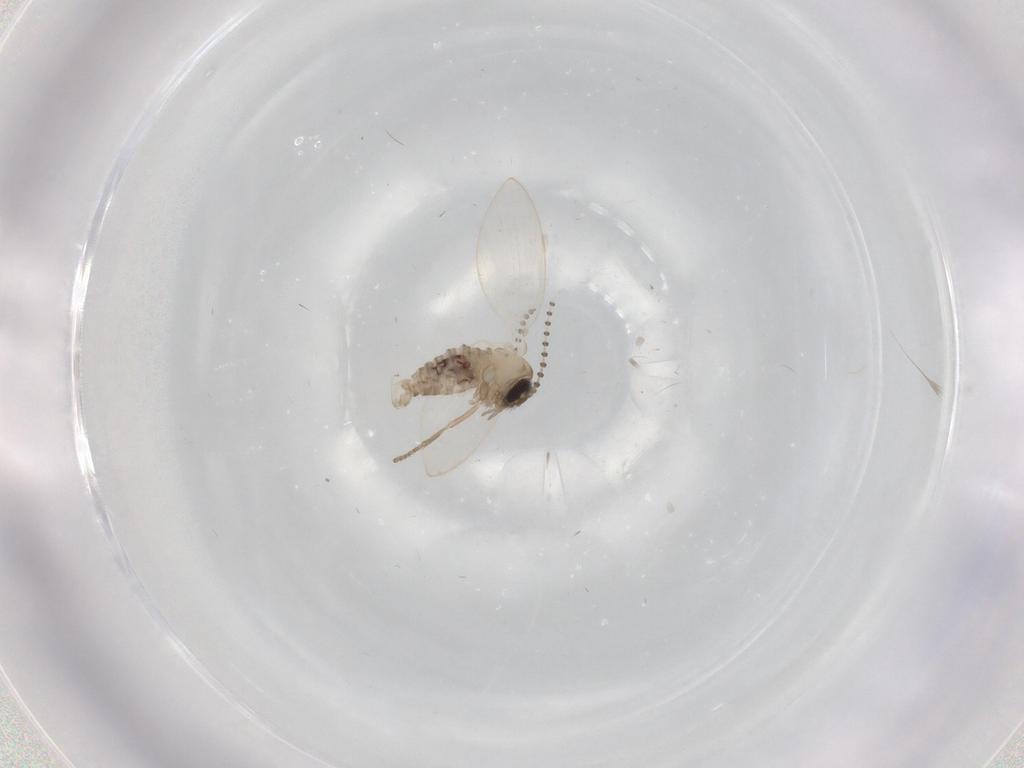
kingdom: Animalia
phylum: Arthropoda
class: Insecta
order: Diptera
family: Psychodidae
